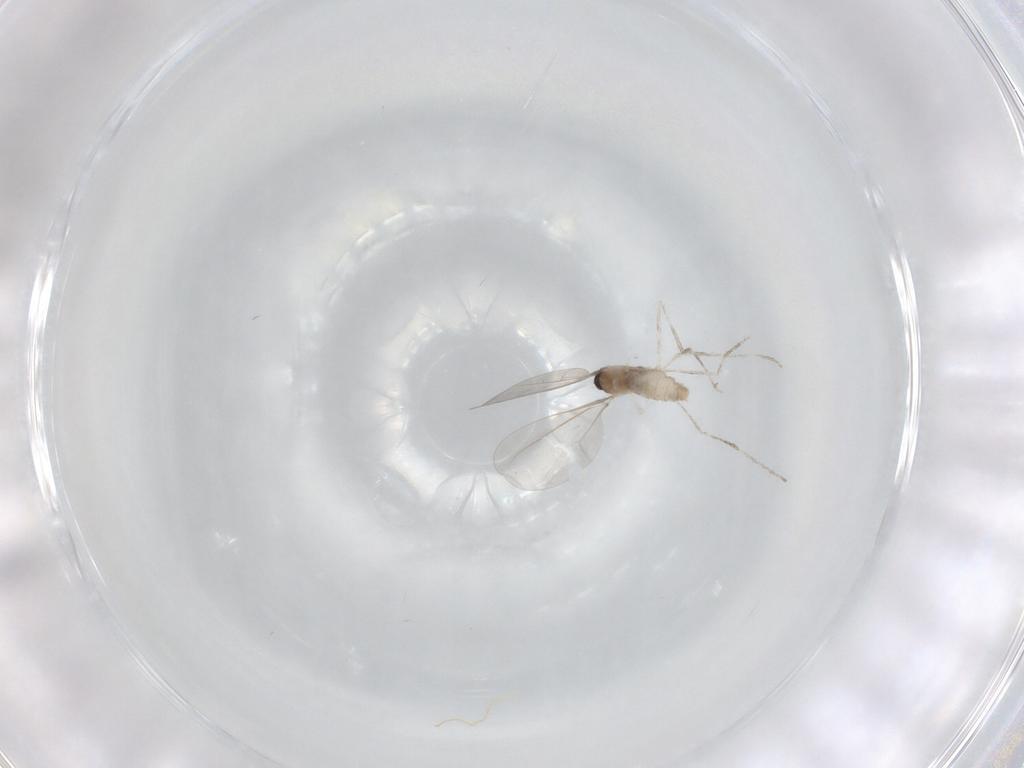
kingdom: Animalia
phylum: Arthropoda
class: Insecta
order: Diptera
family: Cecidomyiidae
